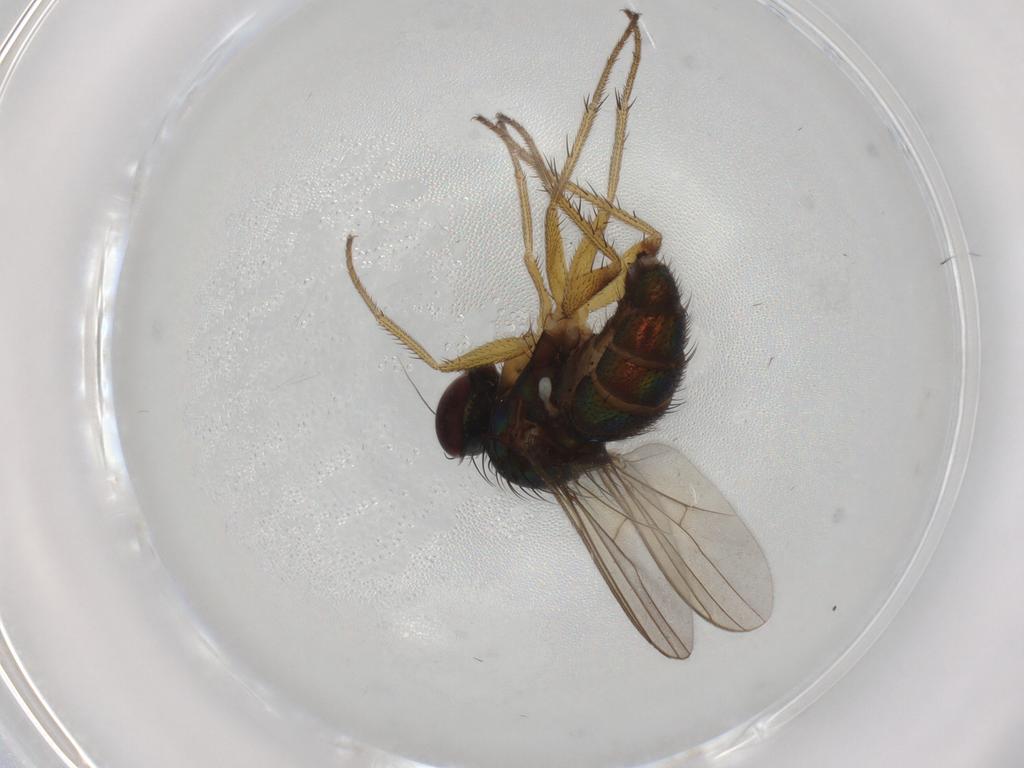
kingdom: Animalia
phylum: Arthropoda
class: Insecta
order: Diptera
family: Dolichopodidae
